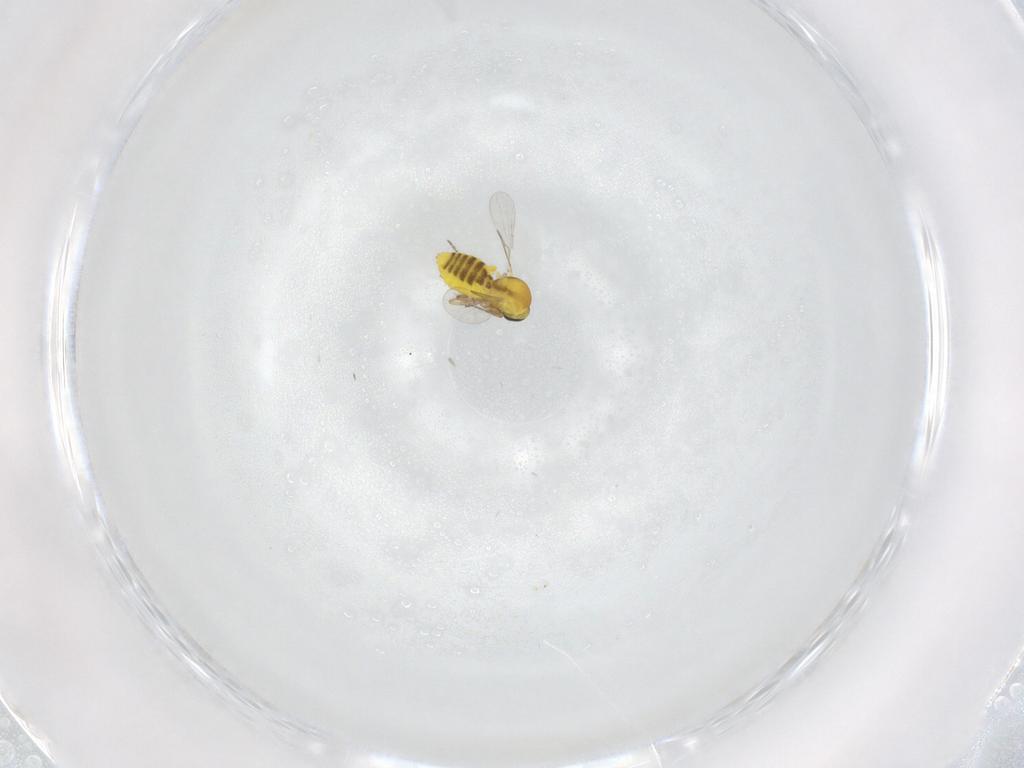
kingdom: Animalia
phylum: Arthropoda
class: Insecta
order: Diptera
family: Ceratopogonidae
